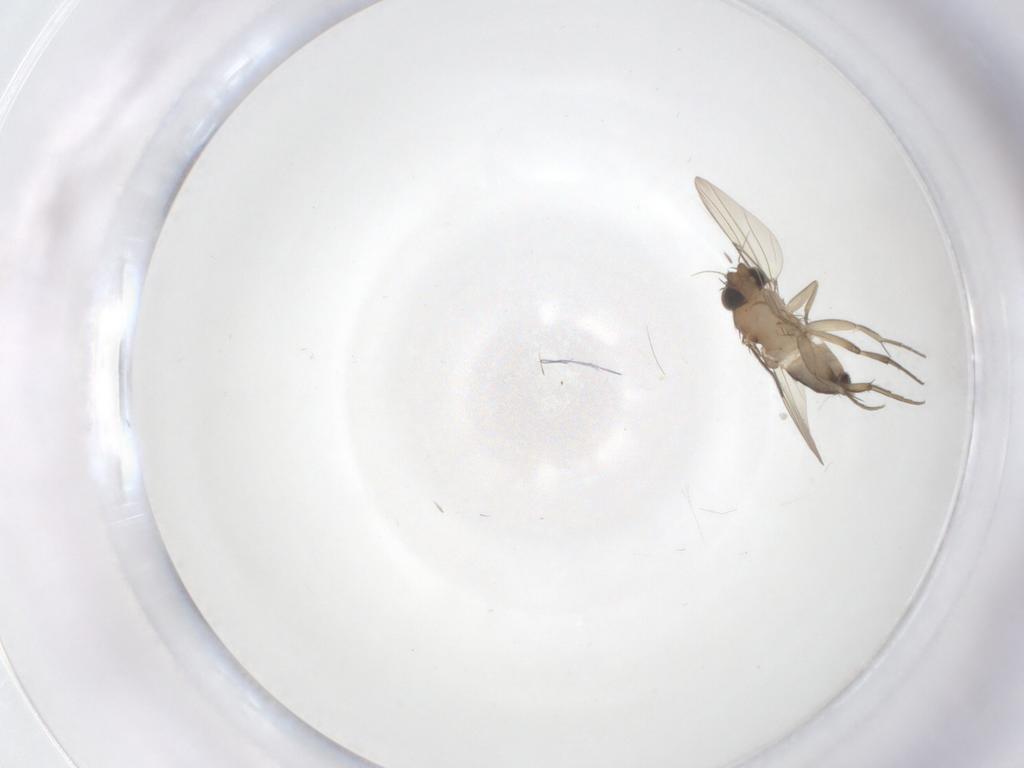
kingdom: Animalia
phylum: Arthropoda
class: Insecta
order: Diptera
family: Phoridae
